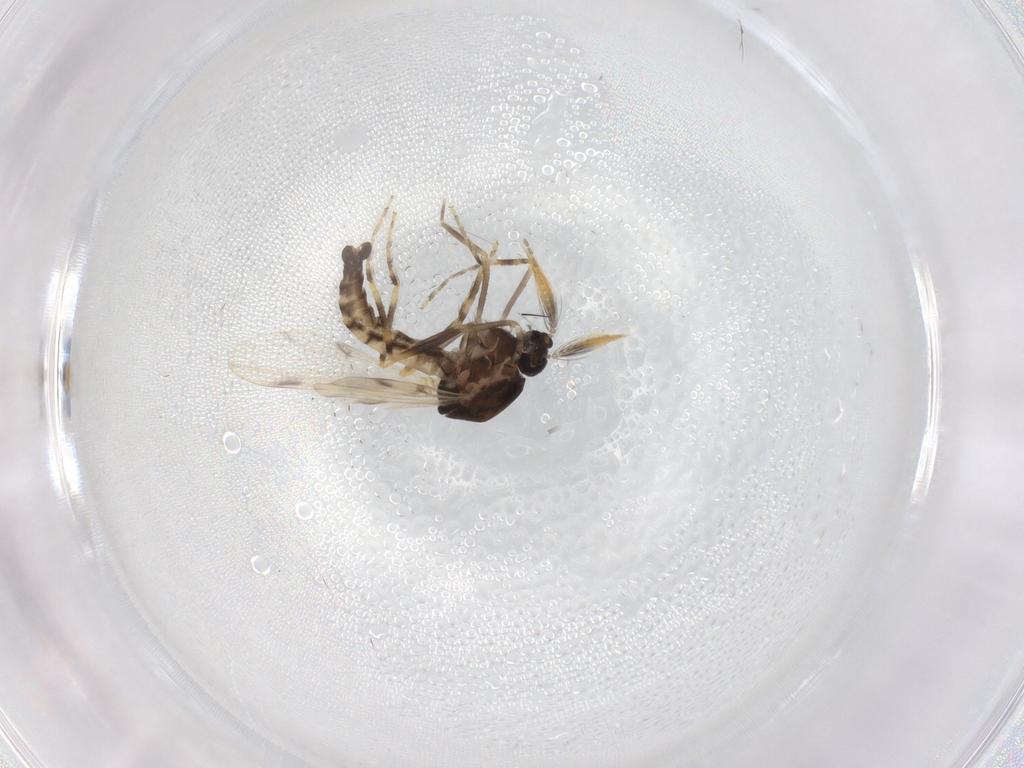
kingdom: Animalia
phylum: Arthropoda
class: Insecta
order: Diptera
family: Ceratopogonidae
